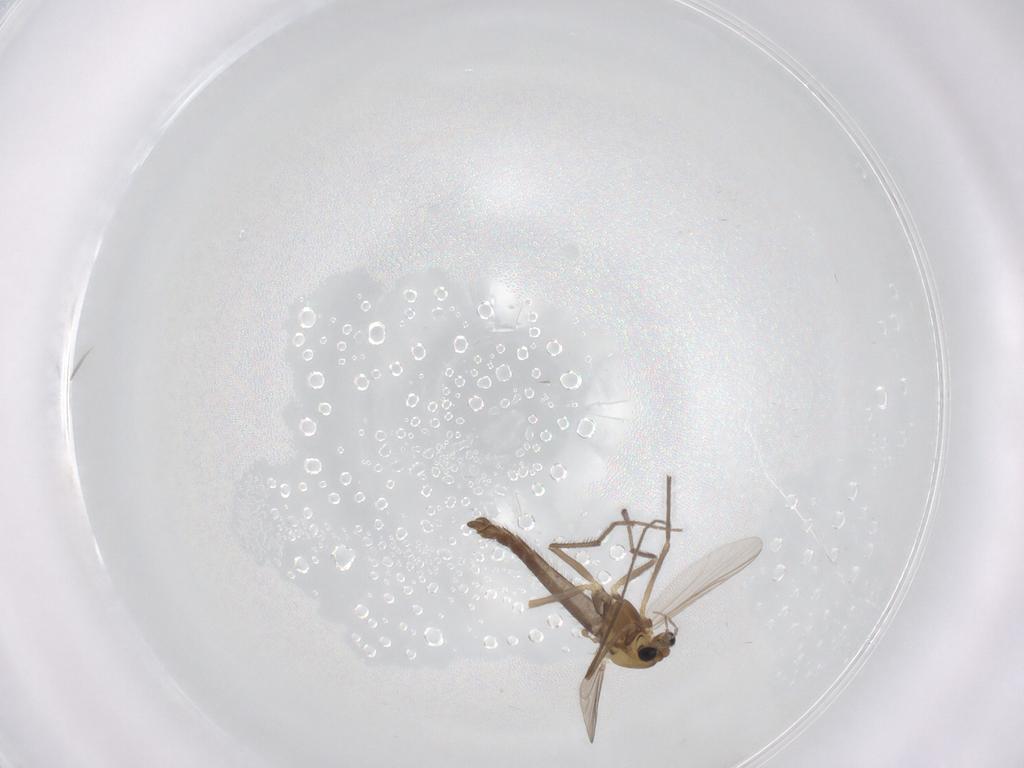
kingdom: Animalia
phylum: Arthropoda
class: Insecta
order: Diptera
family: Chironomidae
